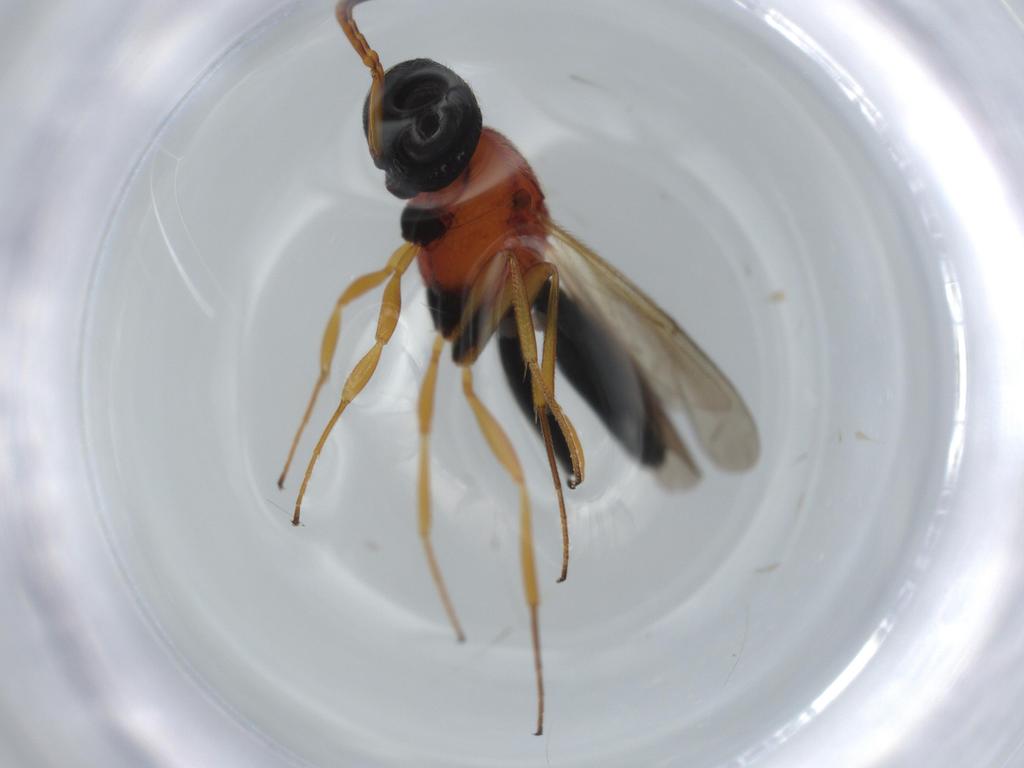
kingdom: Animalia
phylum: Arthropoda
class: Insecta
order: Hymenoptera
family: Scelionidae
